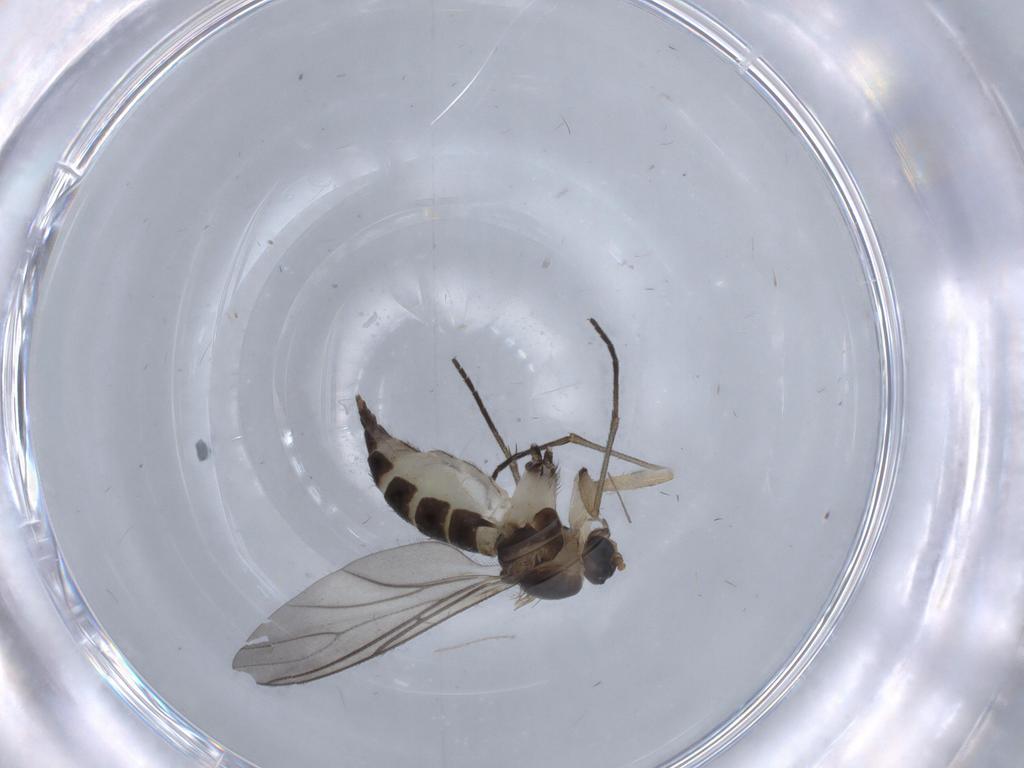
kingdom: Animalia
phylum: Arthropoda
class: Insecta
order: Diptera
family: Sciaridae
